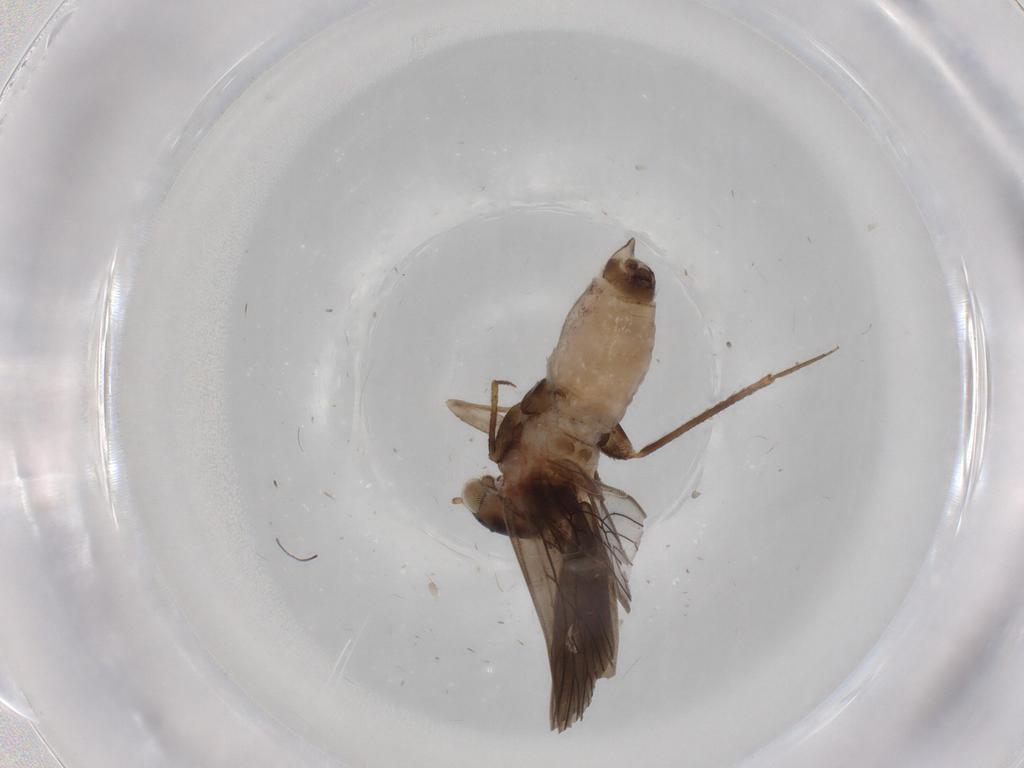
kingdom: Animalia
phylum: Arthropoda
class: Insecta
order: Psocodea
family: Lepidopsocidae
